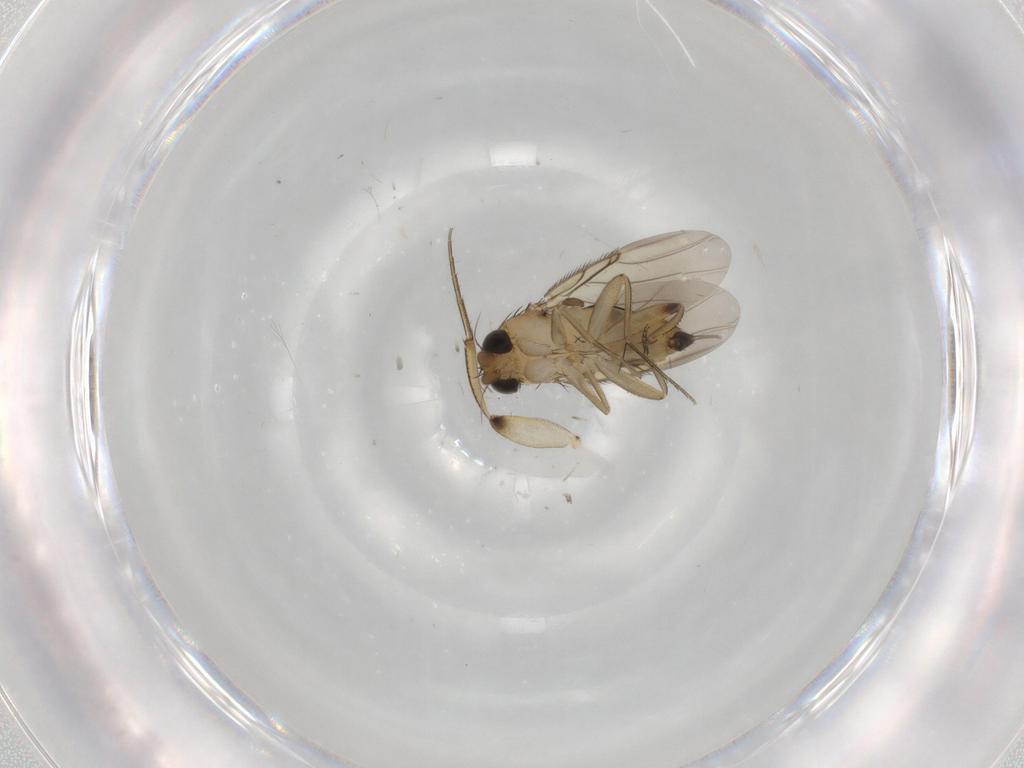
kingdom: Animalia
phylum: Arthropoda
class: Insecta
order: Diptera
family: Phoridae
